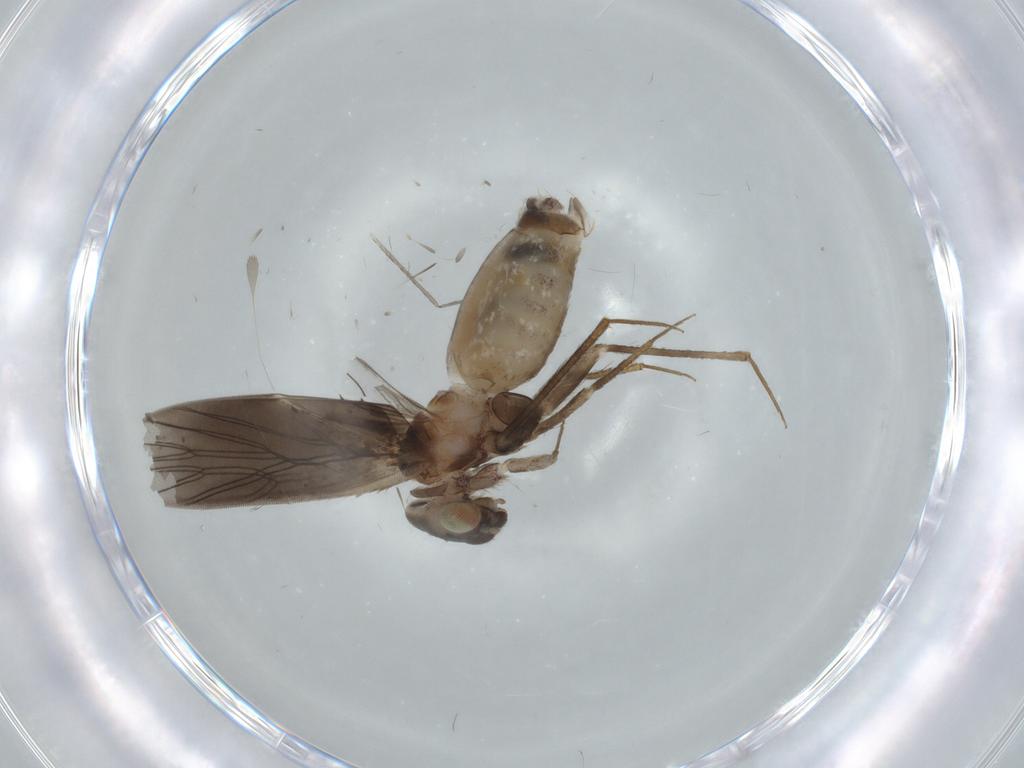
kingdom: Animalia
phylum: Arthropoda
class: Insecta
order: Psocodea
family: Lepidopsocidae
